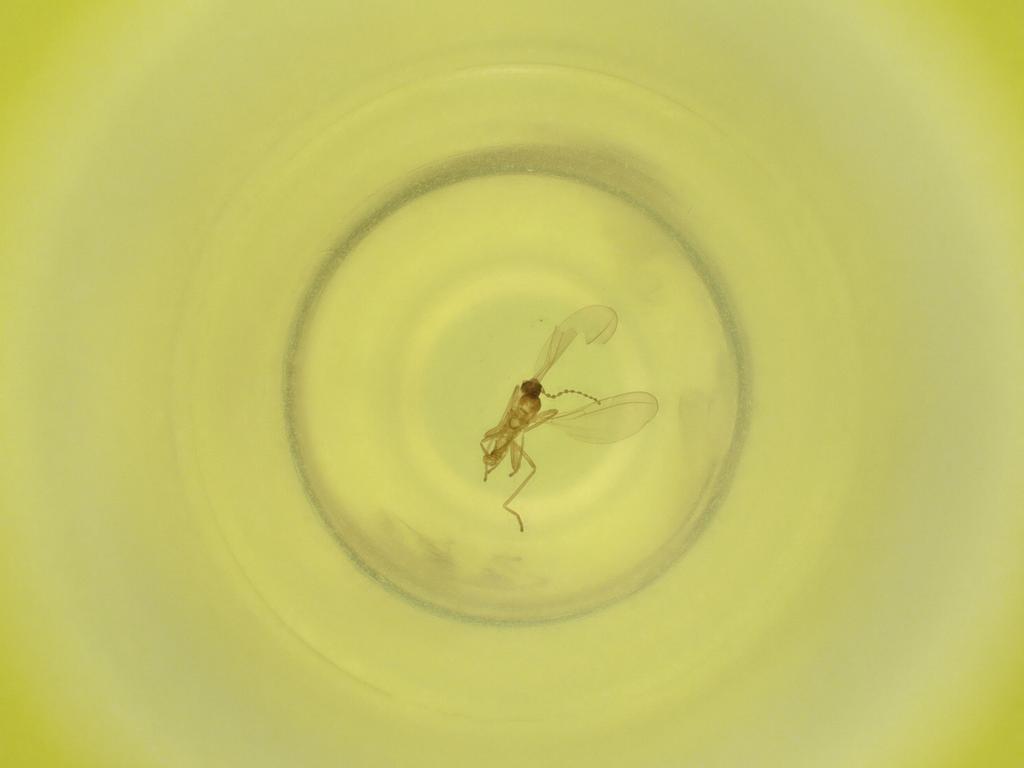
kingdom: Animalia
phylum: Arthropoda
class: Insecta
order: Diptera
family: Cecidomyiidae
